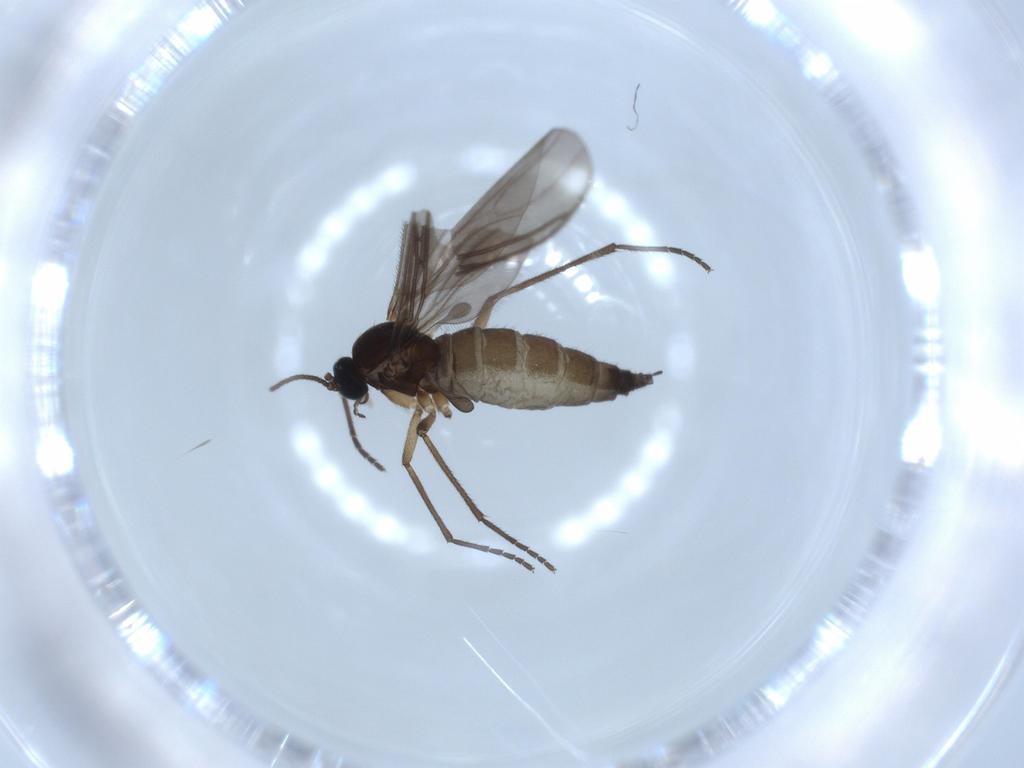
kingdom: Animalia
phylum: Arthropoda
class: Insecta
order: Diptera
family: Sciaridae
